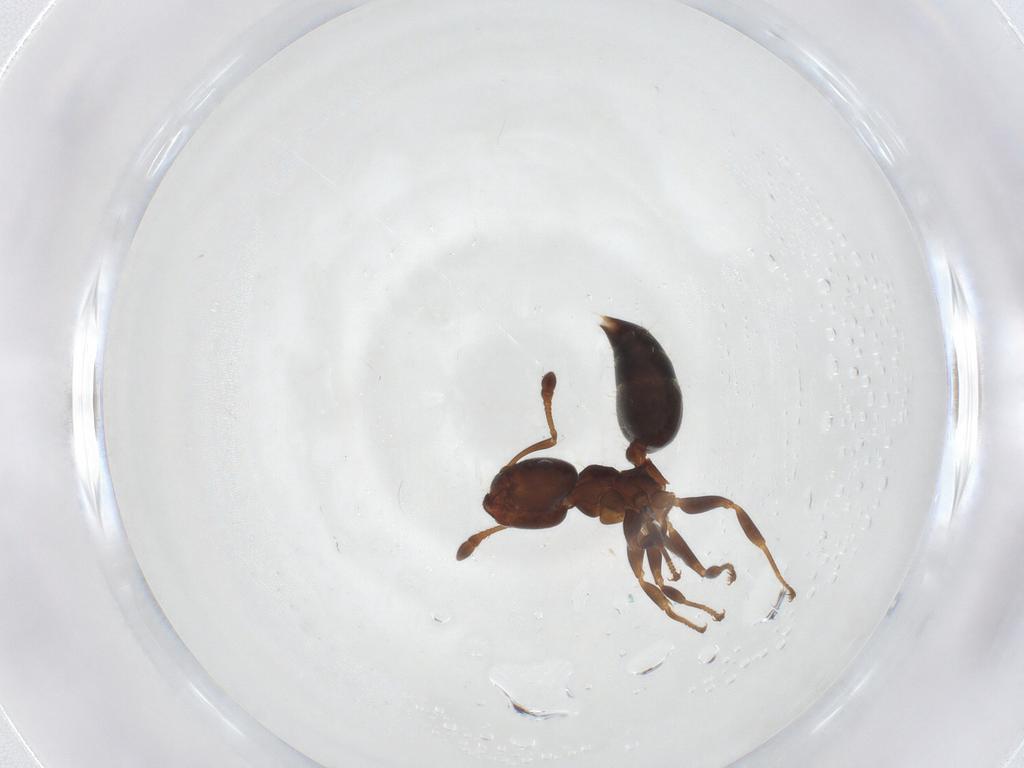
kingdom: Animalia
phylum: Arthropoda
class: Insecta
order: Hymenoptera
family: Formicidae
